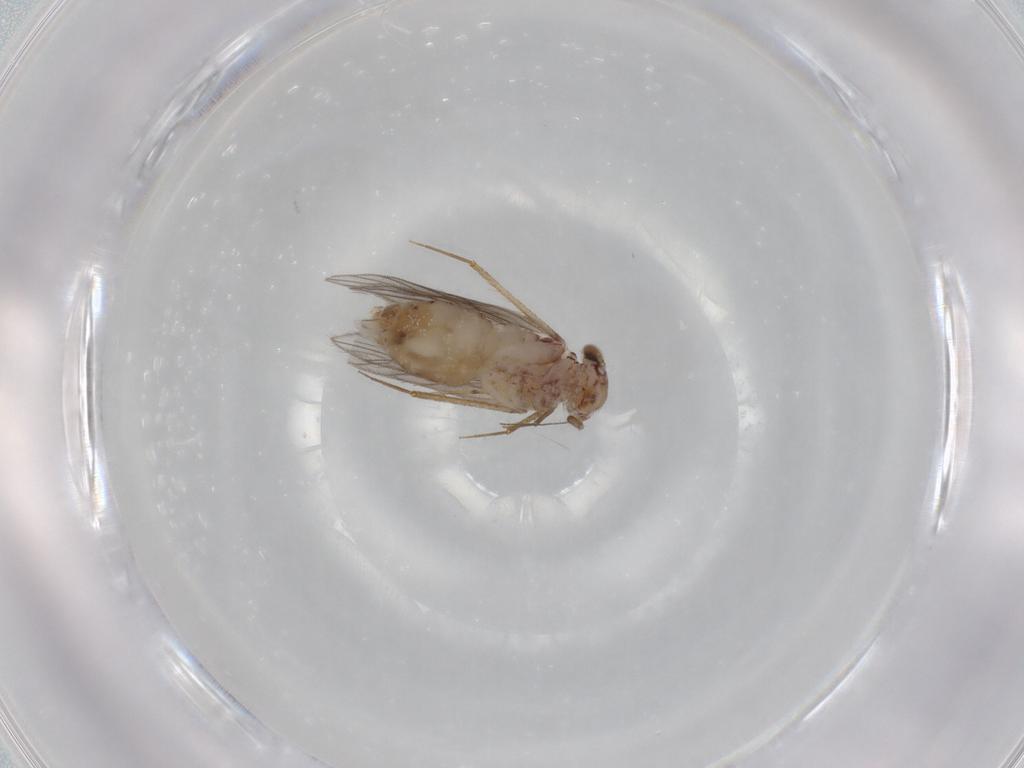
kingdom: Animalia
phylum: Arthropoda
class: Insecta
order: Psocodea
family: Lepidopsocidae
